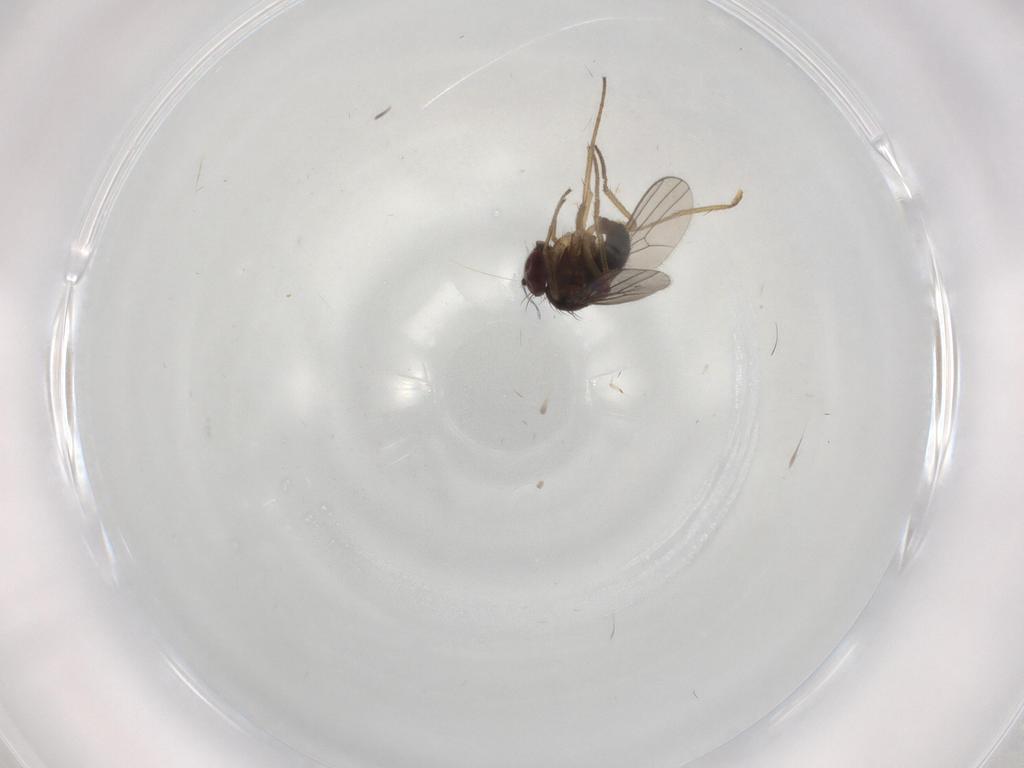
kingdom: Animalia
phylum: Arthropoda
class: Insecta
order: Diptera
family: Dolichopodidae
